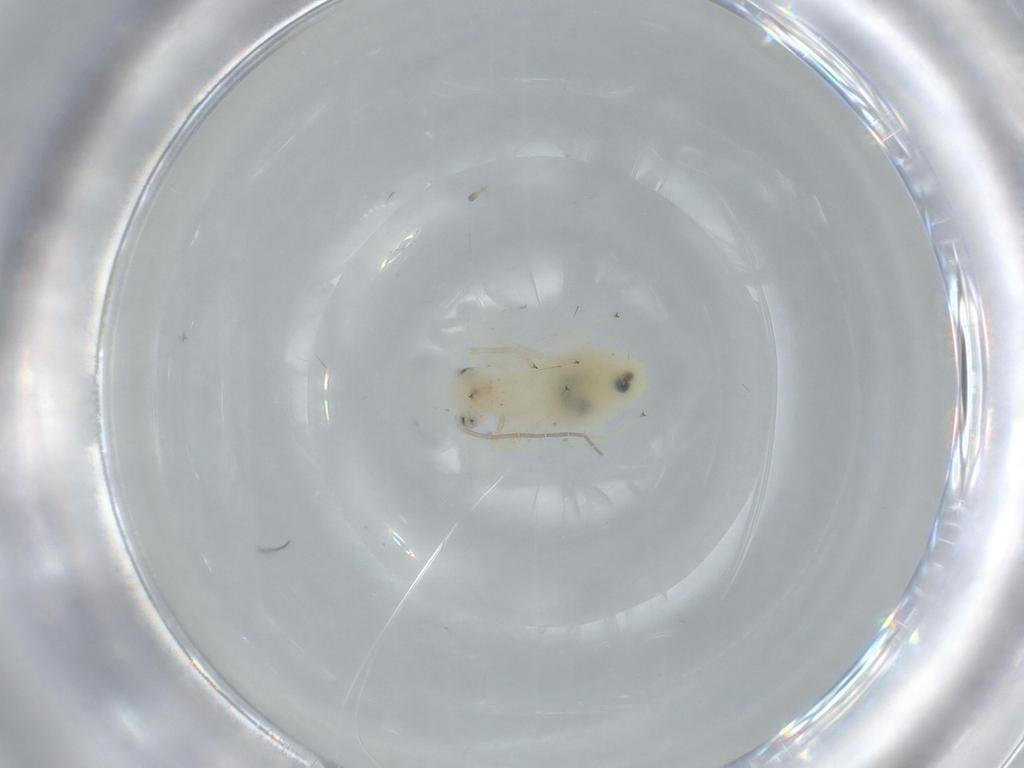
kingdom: Animalia
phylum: Arthropoda
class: Insecta
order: Psocodea
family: Caeciliusidae
